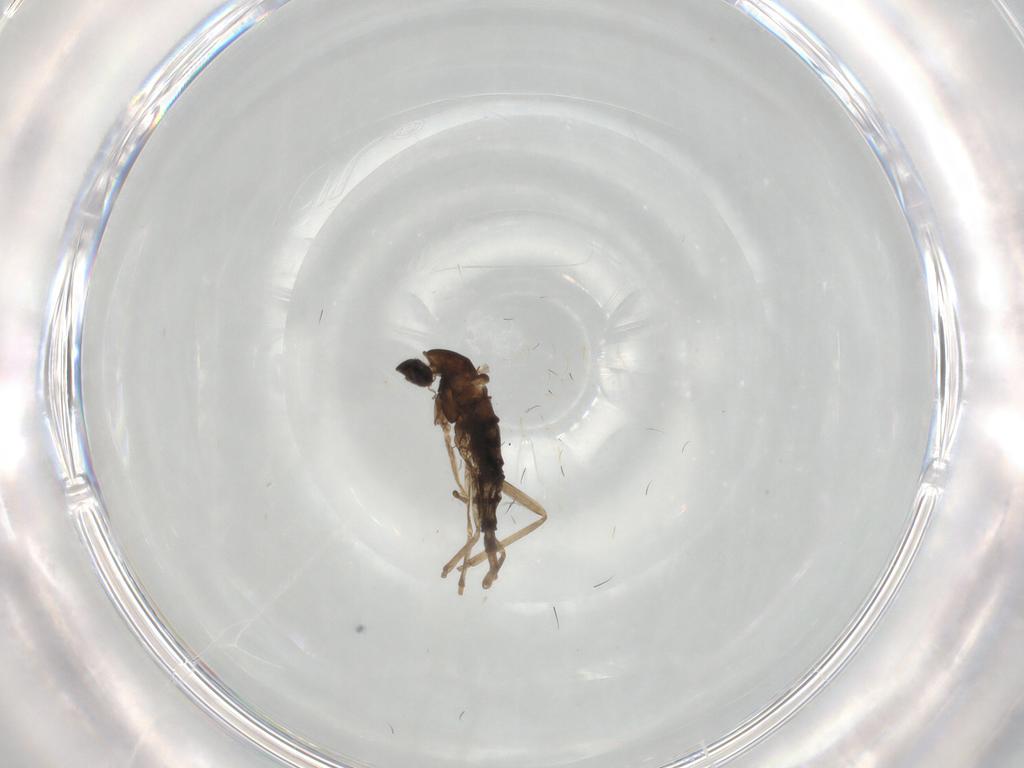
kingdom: Animalia
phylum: Arthropoda
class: Insecta
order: Diptera
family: Cecidomyiidae
